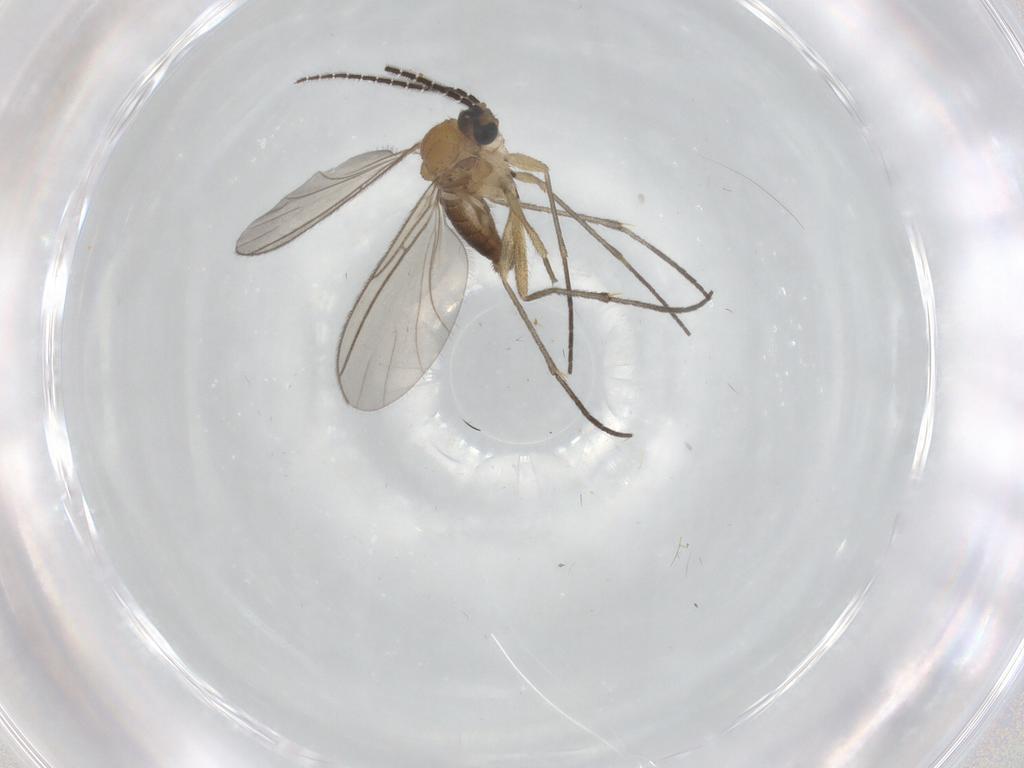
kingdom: Animalia
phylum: Arthropoda
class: Insecta
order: Diptera
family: Sciaridae
